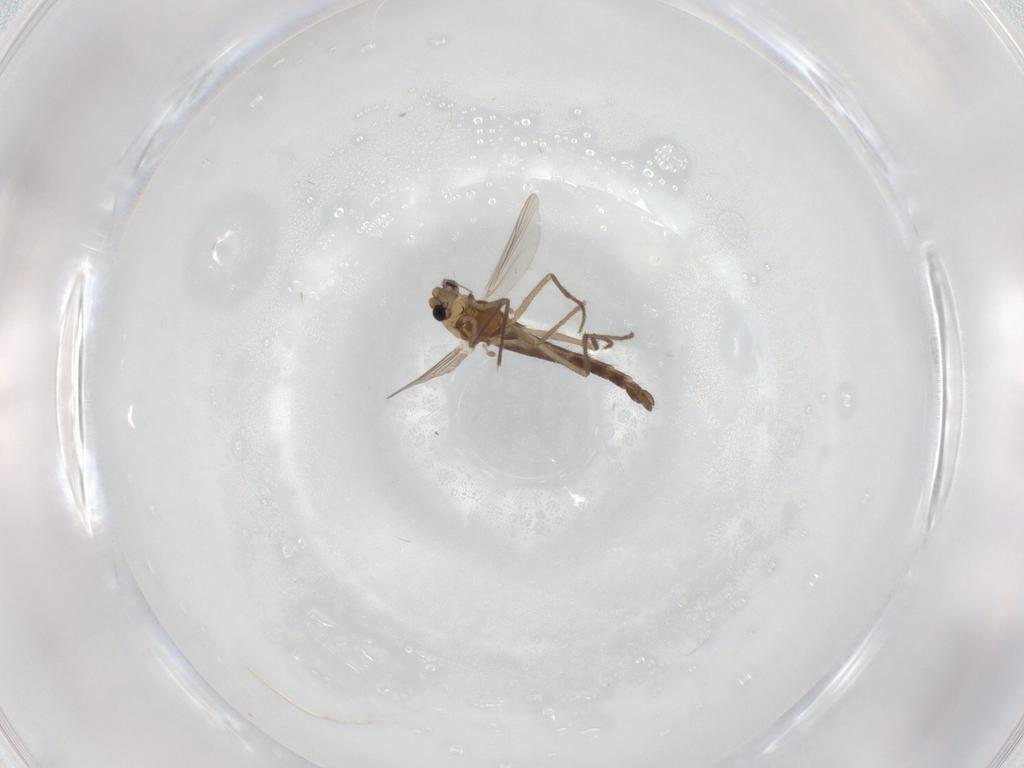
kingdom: Animalia
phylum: Arthropoda
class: Insecta
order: Diptera
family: Chironomidae
